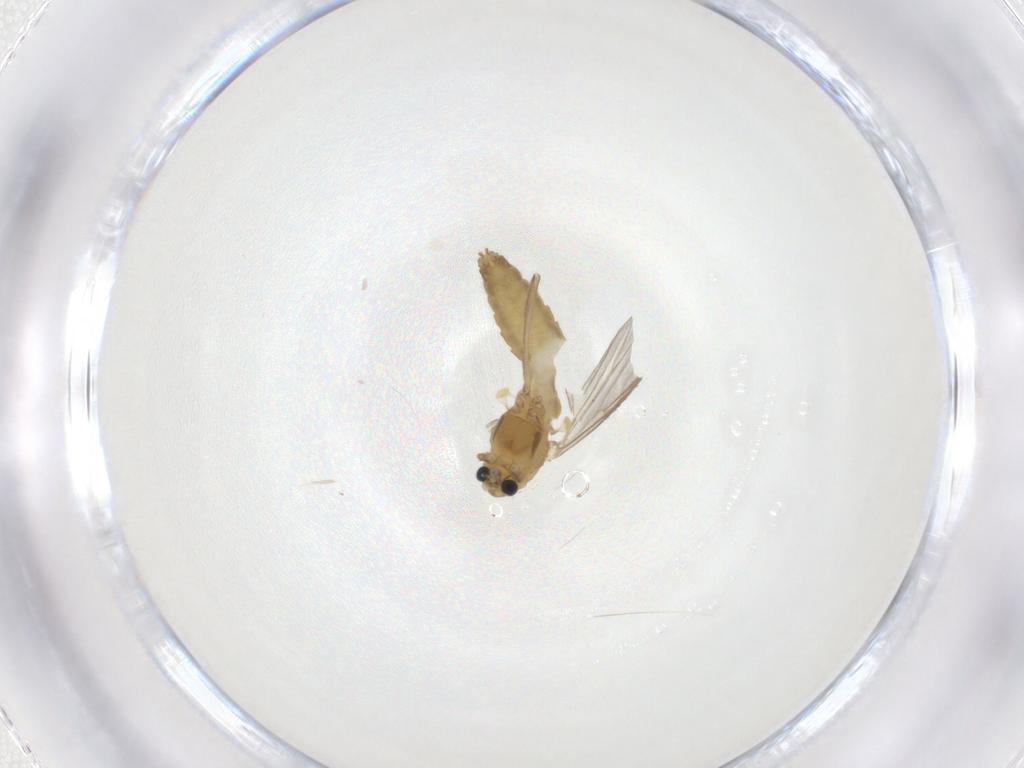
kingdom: Animalia
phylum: Arthropoda
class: Insecta
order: Diptera
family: Chironomidae
